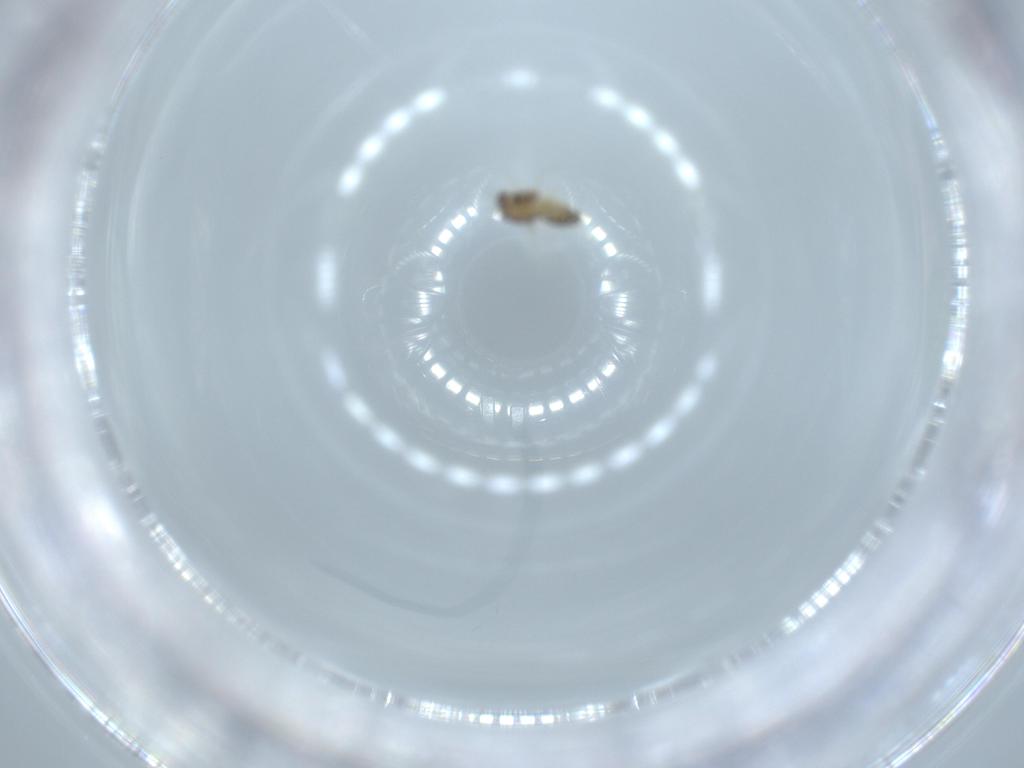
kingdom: Animalia
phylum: Arthropoda
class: Insecta
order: Diptera
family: Chironomidae
